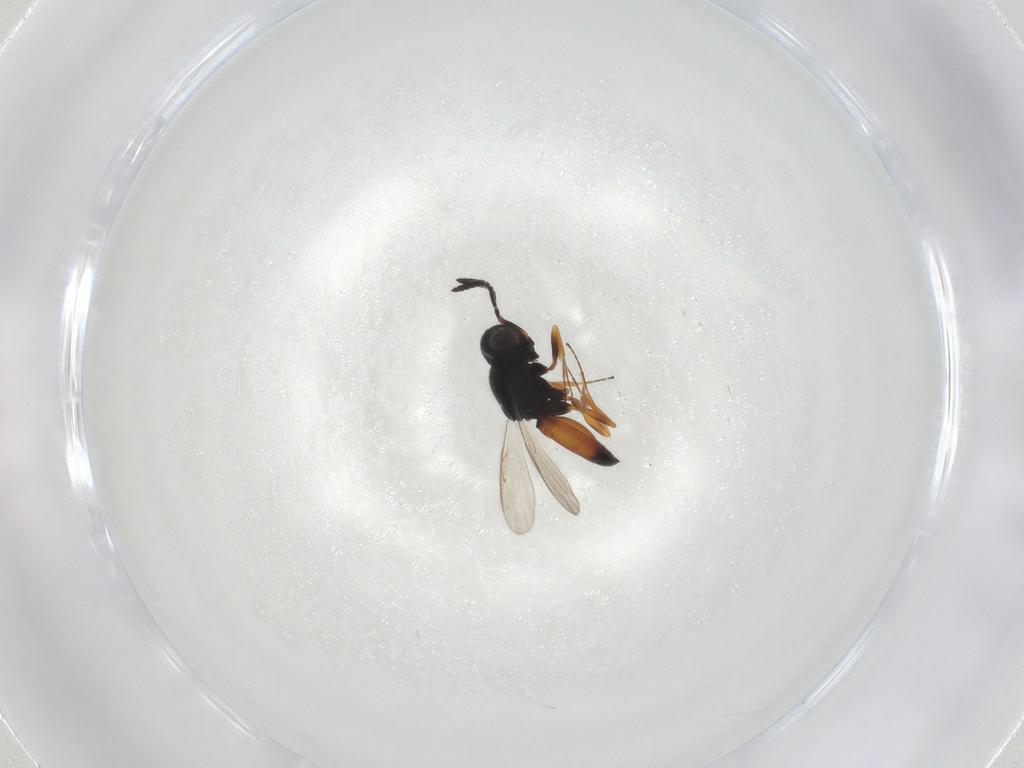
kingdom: Animalia
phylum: Arthropoda
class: Insecta
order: Hymenoptera
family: Scelionidae
